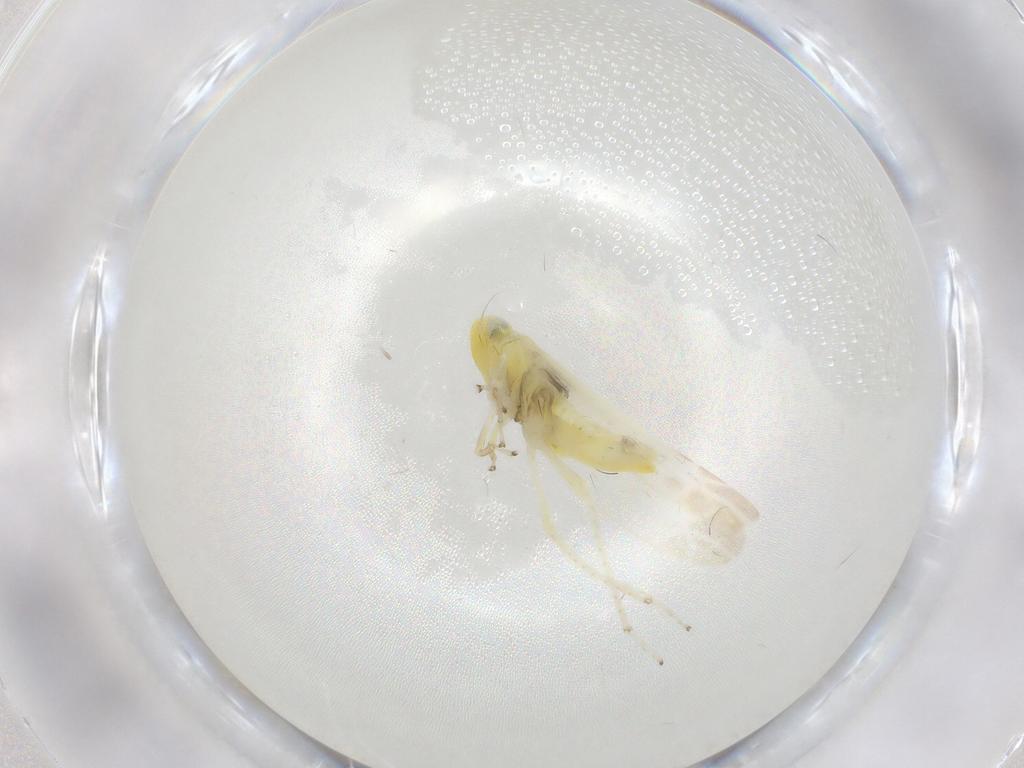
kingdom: Animalia
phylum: Arthropoda
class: Insecta
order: Hemiptera
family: Cicadellidae
